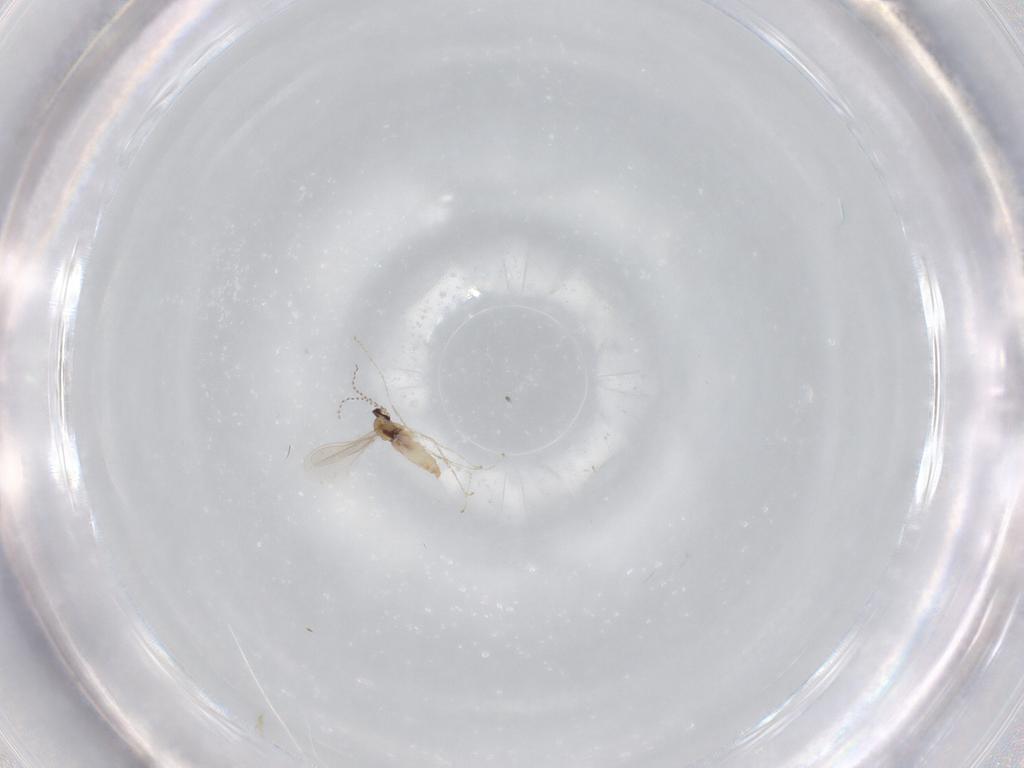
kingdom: Animalia
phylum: Arthropoda
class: Insecta
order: Diptera
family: Cecidomyiidae
